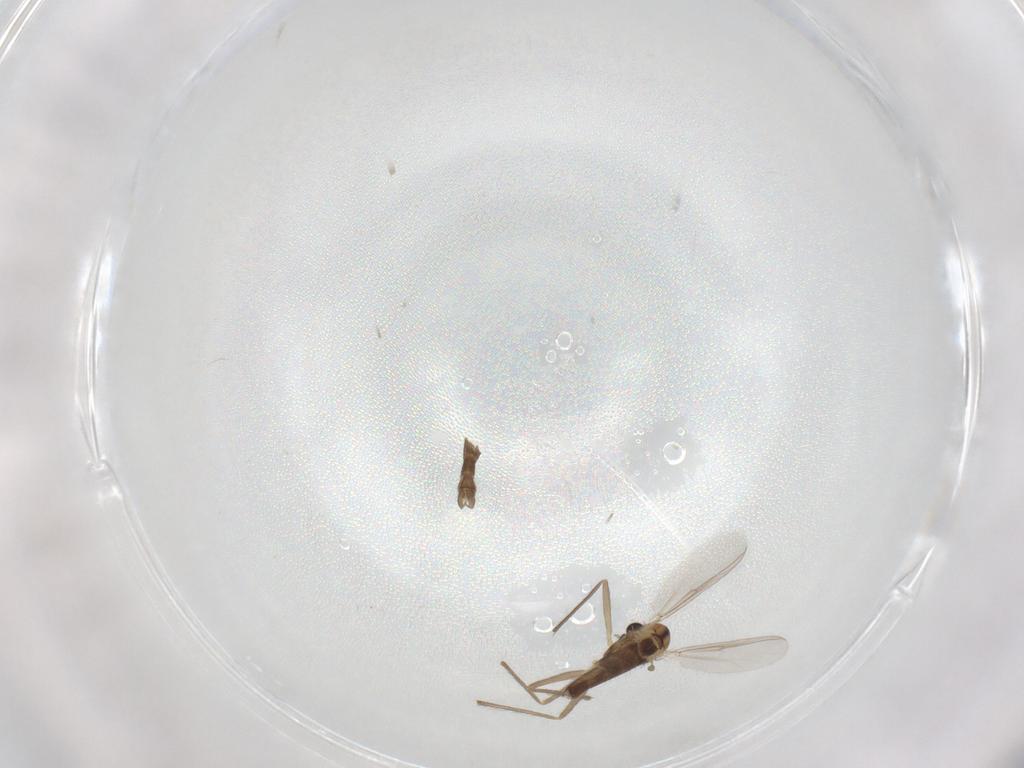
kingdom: Animalia
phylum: Arthropoda
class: Insecta
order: Diptera
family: Chironomidae
